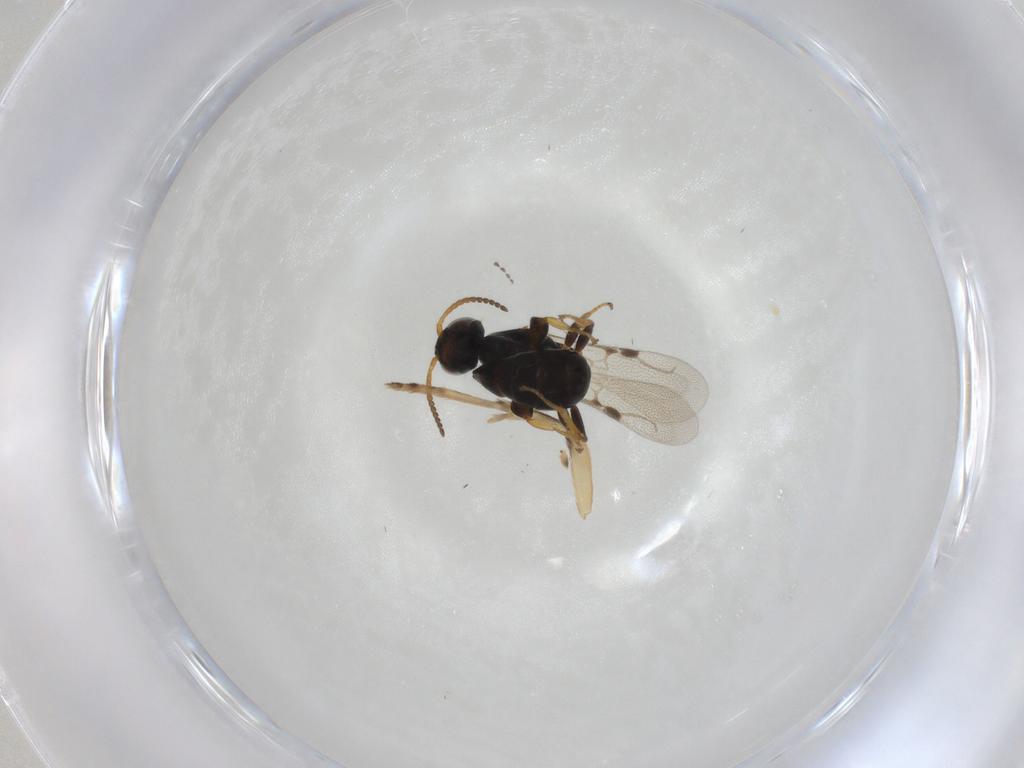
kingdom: Animalia
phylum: Arthropoda
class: Insecta
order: Hymenoptera
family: Bethylidae
